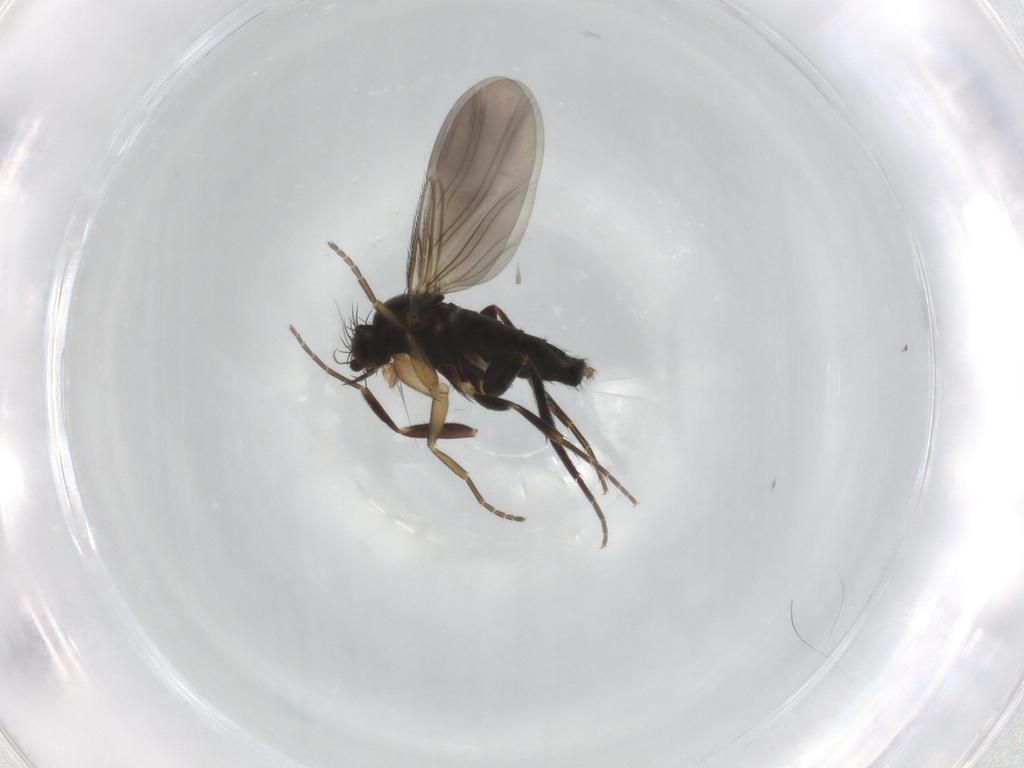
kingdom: Animalia
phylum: Arthropoda
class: Insecta
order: Diptera
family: Phoridae
